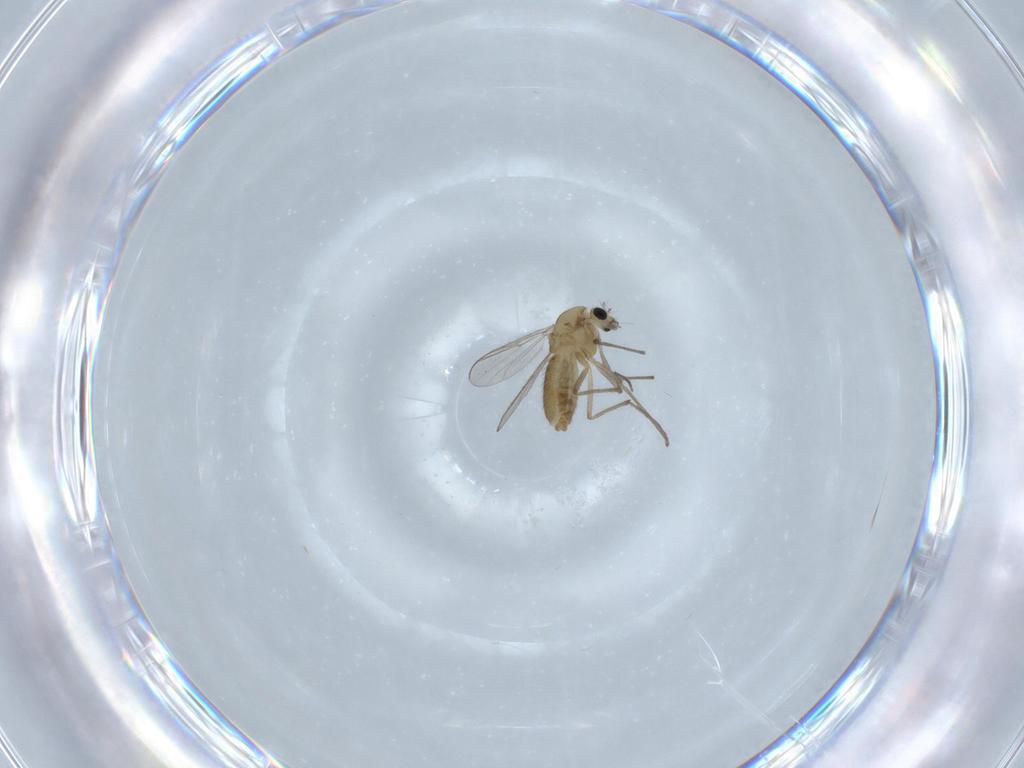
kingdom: Animalia
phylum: Arthropoda
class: Insecta
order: Diptera
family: Chironomidae
